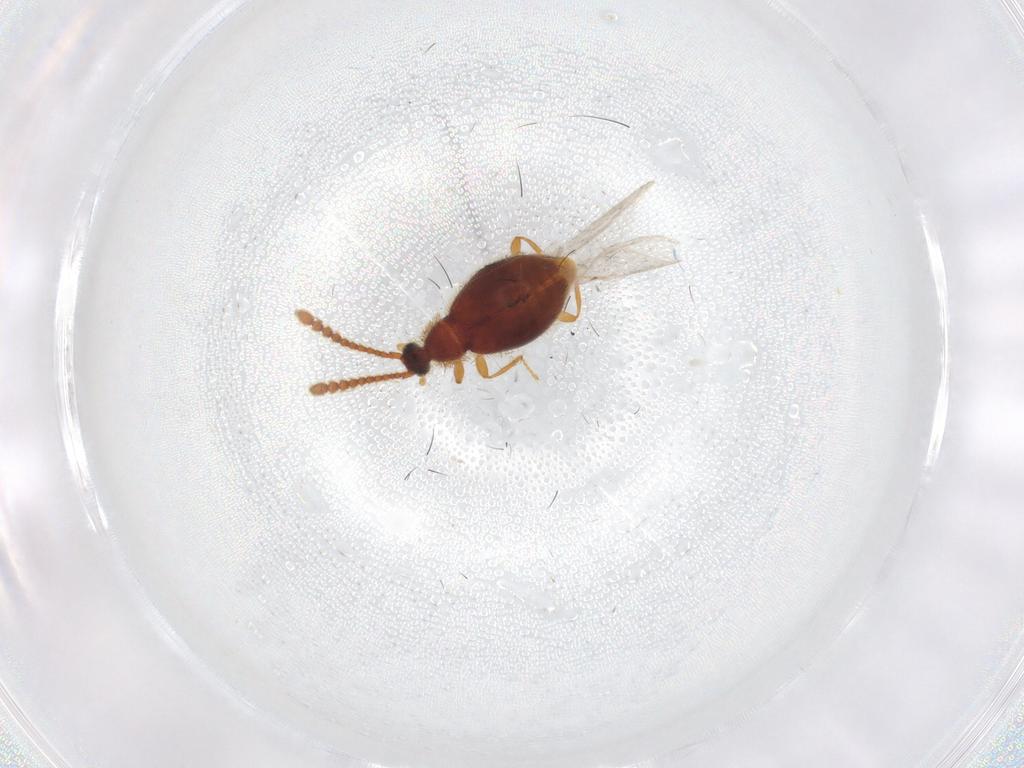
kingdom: Animalia
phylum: Arthropoda
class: Insecta
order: Coleoptera
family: Staphylinidae
